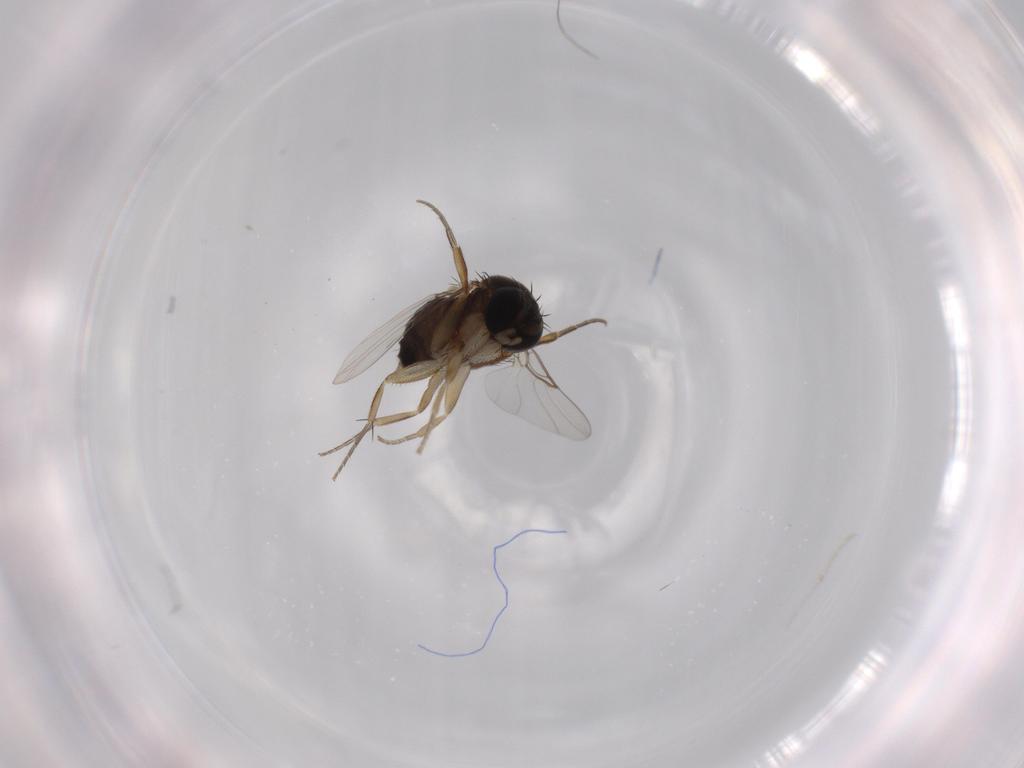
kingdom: Animalia
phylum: Arthropoda
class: Insecta
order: Diptera
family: Phoridae
